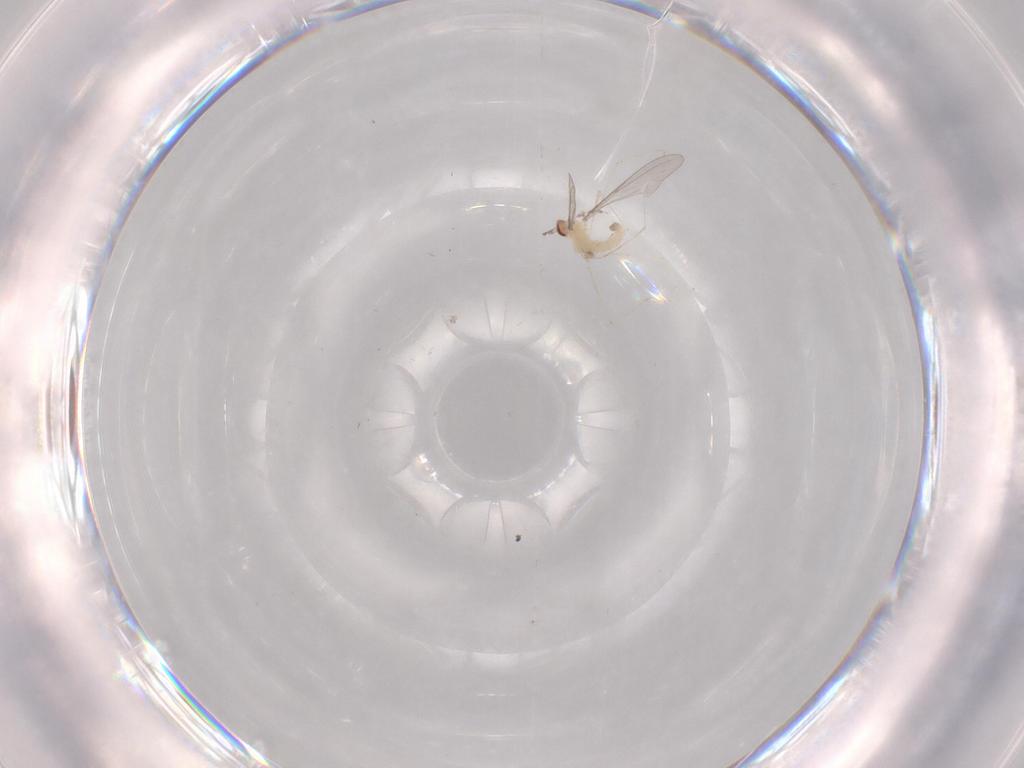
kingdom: Animalia
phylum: Arthropoda
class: Insecta
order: Diptera
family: Cecidomyiidae
